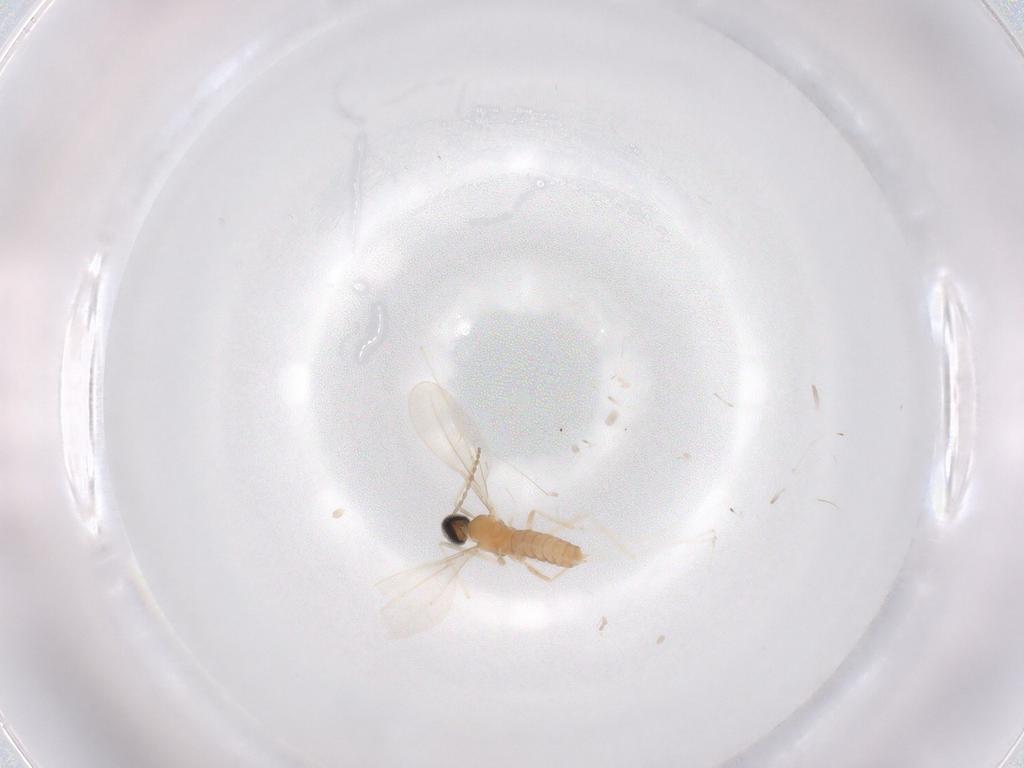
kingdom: Animalia
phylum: Arthropoda
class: Insecta
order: Diptera
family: Cecidomyiidae
